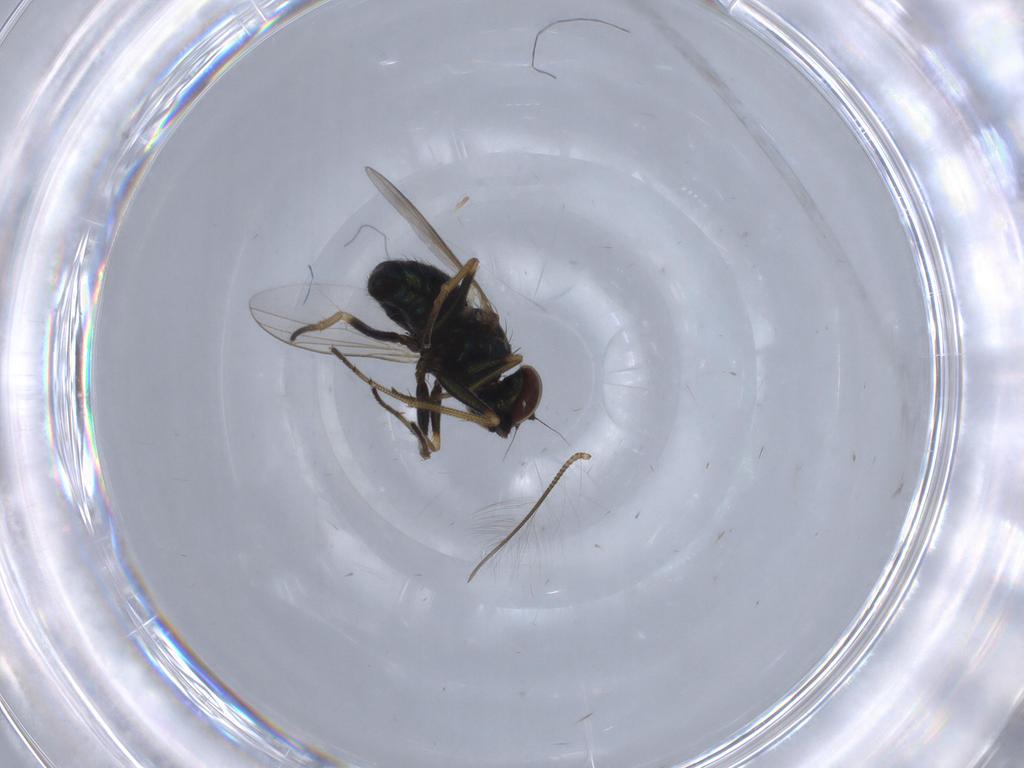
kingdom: Animalia
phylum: Arthropoda
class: Insecta
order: Diptera
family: Dolichopodidae
